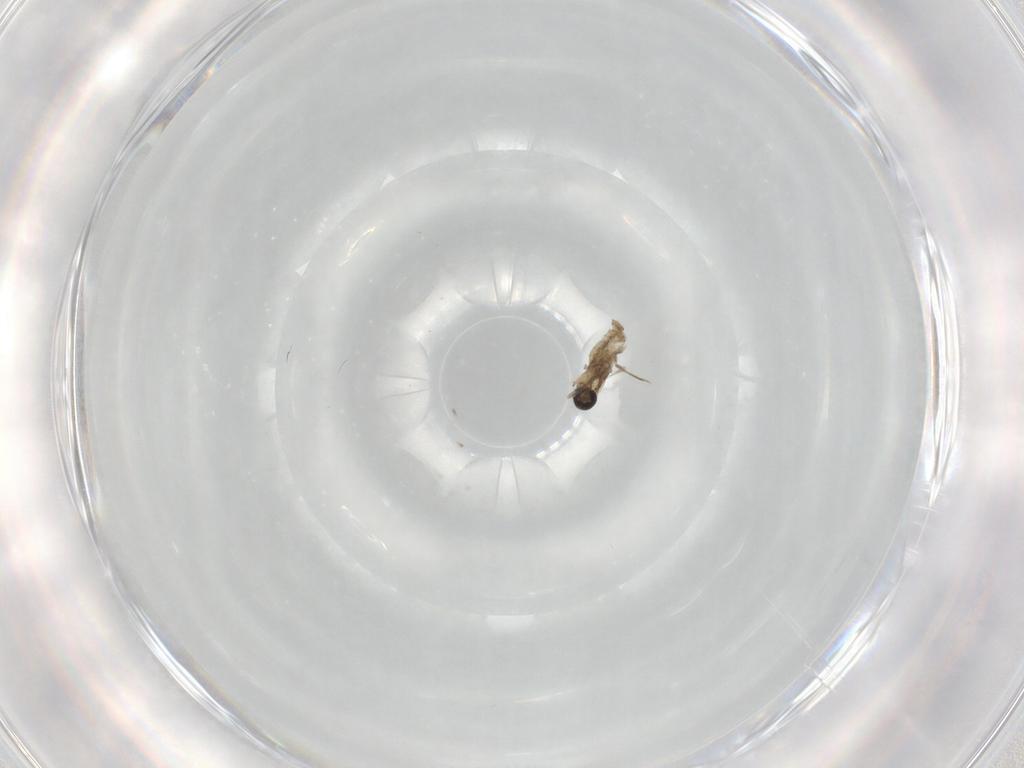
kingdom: Animalia
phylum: Arthropoda
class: Insecta
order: Diptera
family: Cecidomyiidae
